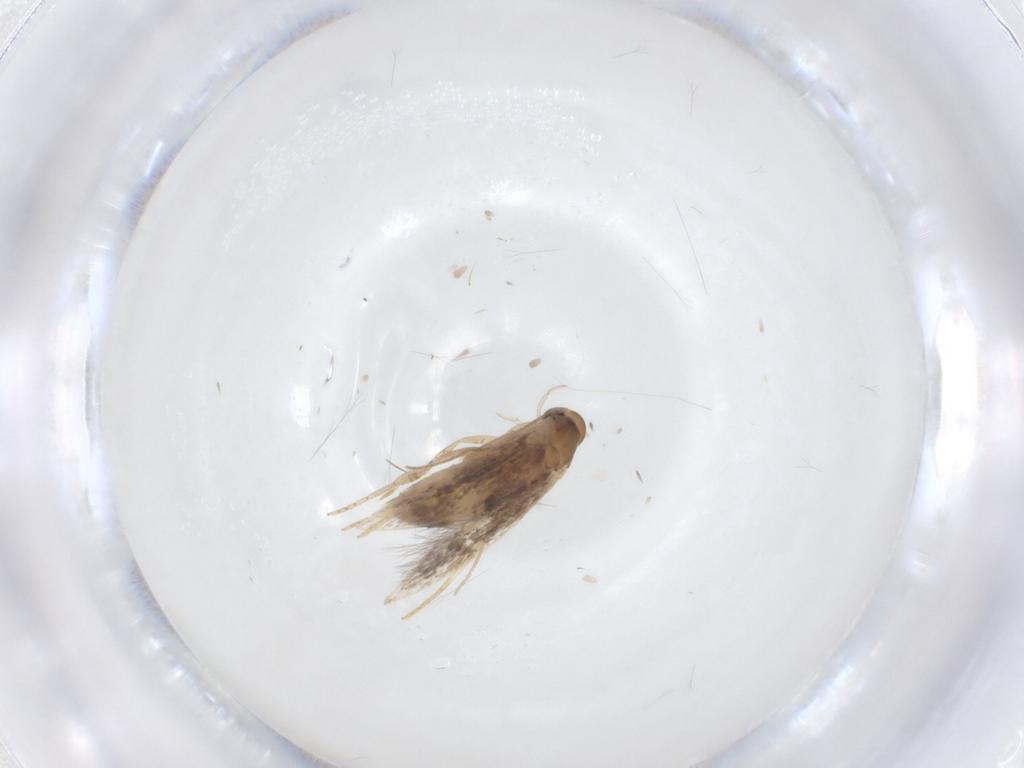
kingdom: Animalia
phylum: Arthropoda
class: Insecta
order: Lepidoptera
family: Elachistidae
